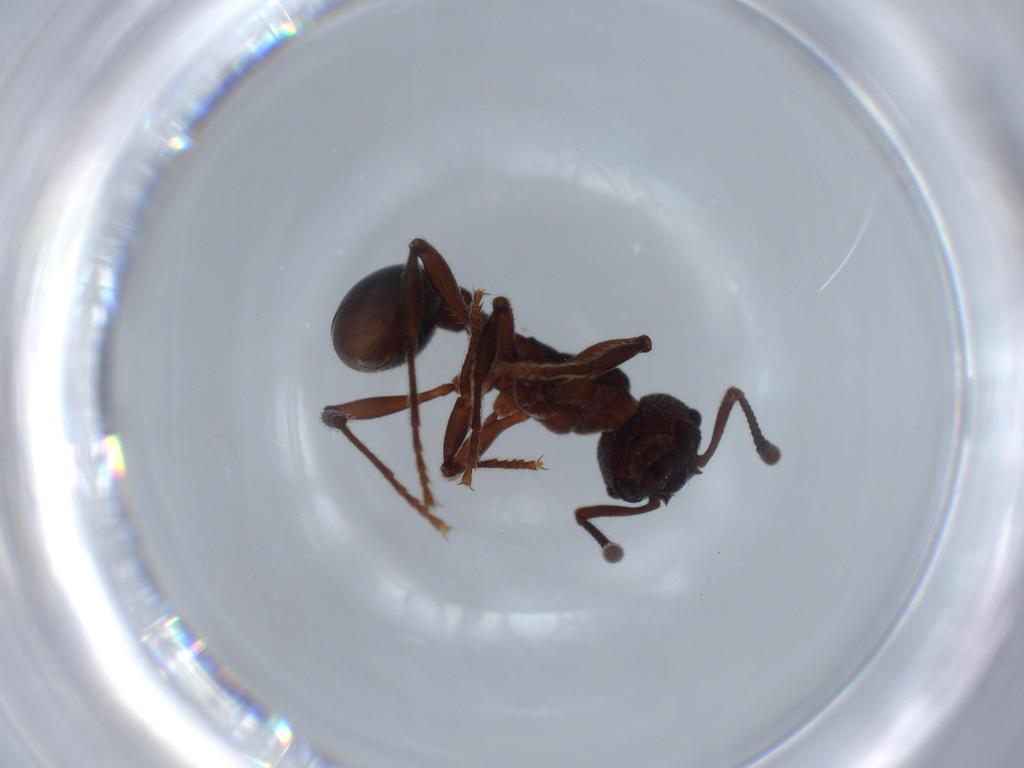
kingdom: Animalia
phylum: Arthropoda
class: Insecta
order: Hymenoptera
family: Formicidae
